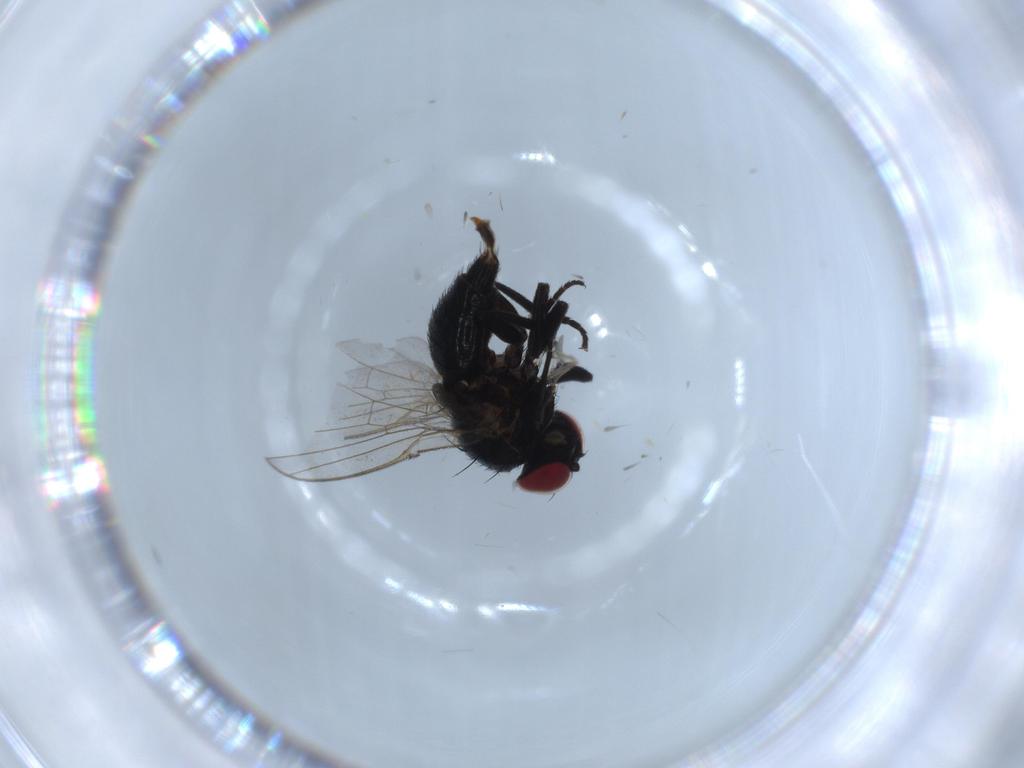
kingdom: Animalia
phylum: Arthropoda
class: Insecta
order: Diptera
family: Agromyzidae
